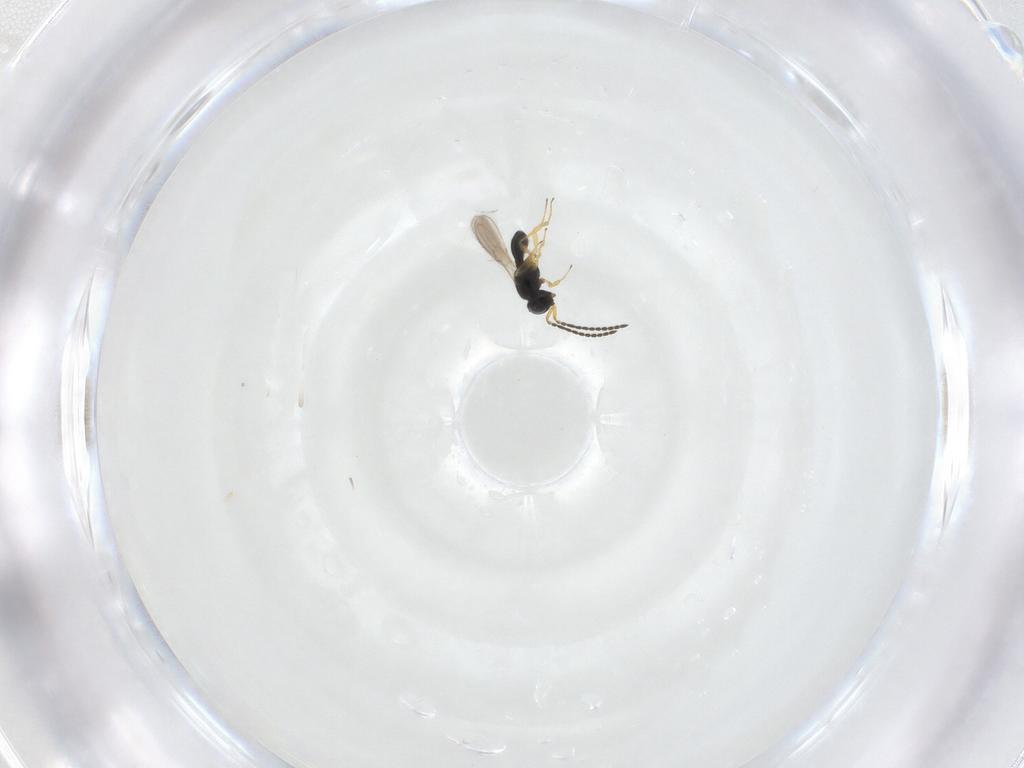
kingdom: Animalia
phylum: Arthropoda
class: Insecta
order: Hymenoptera
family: Scelionidae
